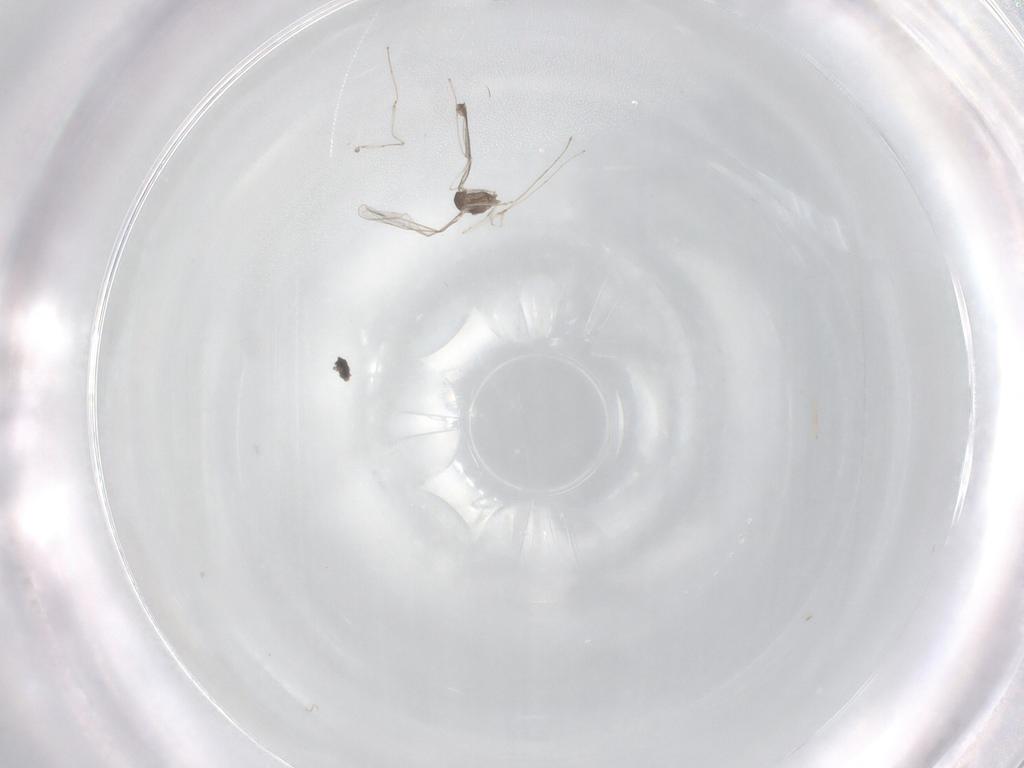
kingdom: Animalia
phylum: Arthropoda
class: Insecta
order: Diptera
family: Cecidomyiidae
